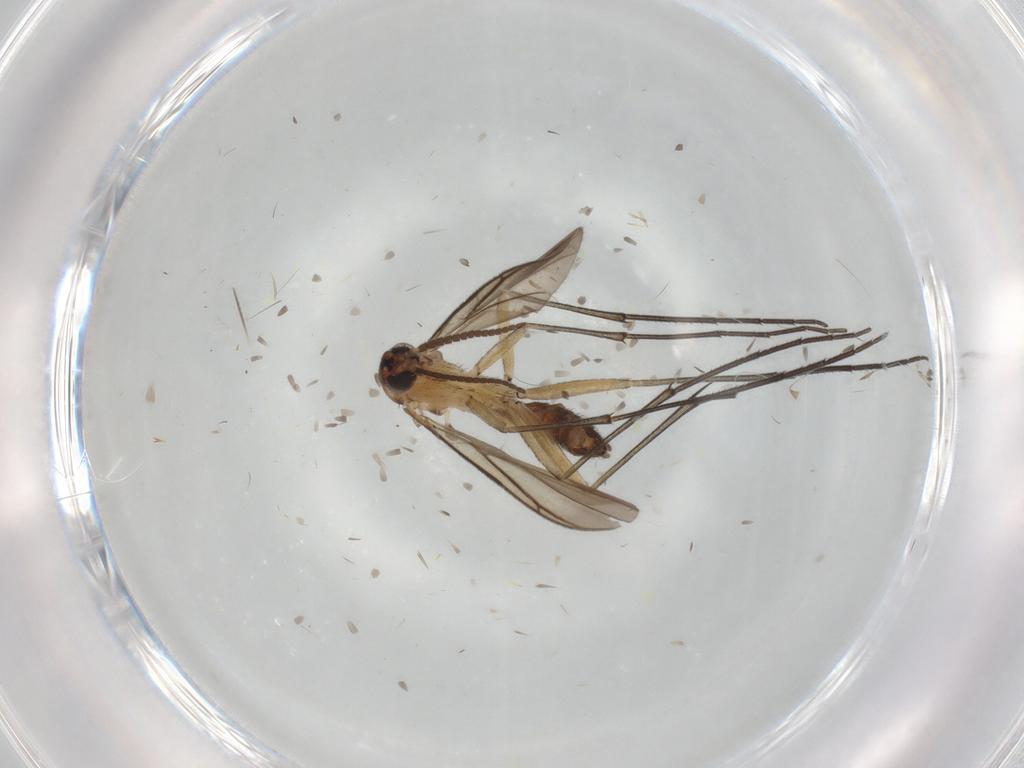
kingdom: Animalia
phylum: Arthropoda
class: Insecta
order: Diptera
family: Keroplatidae
